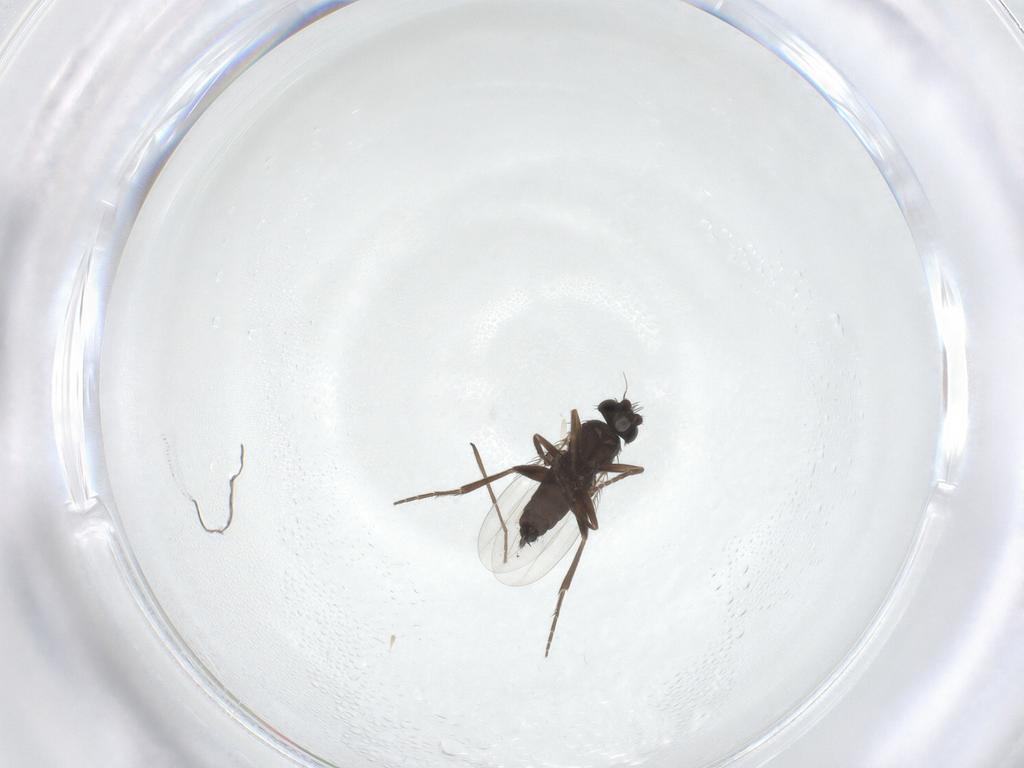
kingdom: Animalia
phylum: Arthropoda
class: Insecta
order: Diptera
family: Phoridae
